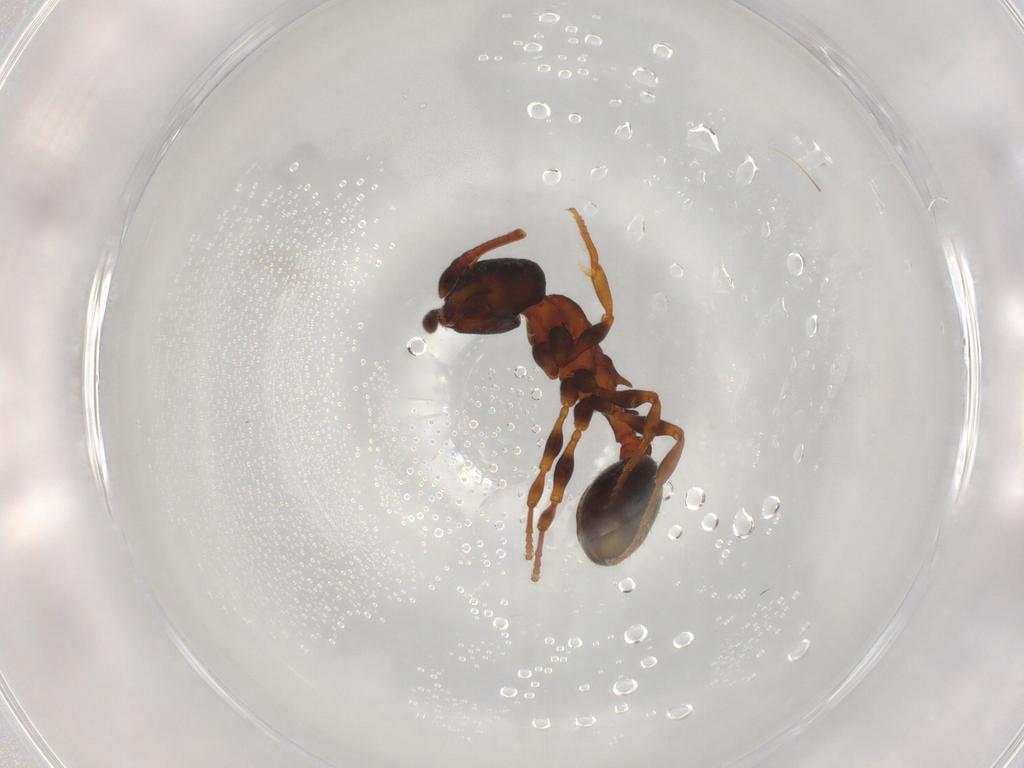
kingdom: Animalia
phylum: Arthropoda
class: Insecta
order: Hymenoptera
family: Formicidae
